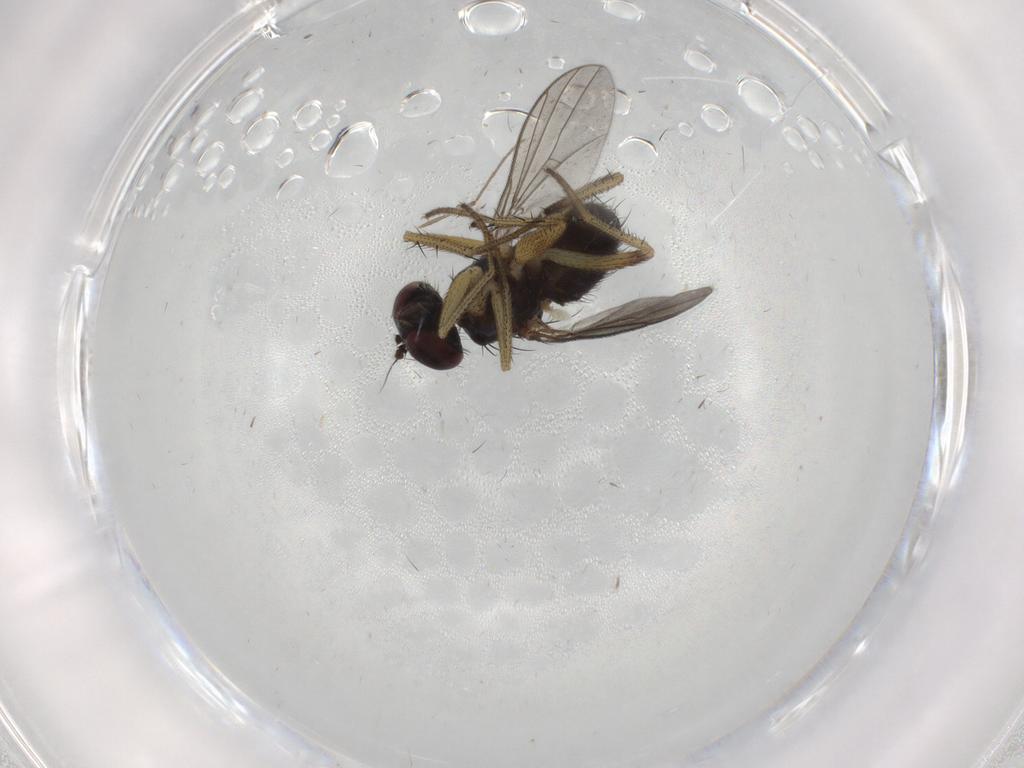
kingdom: Animalia
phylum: Arthropoda
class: Insecta
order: Diptera
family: Dolichopodidae
